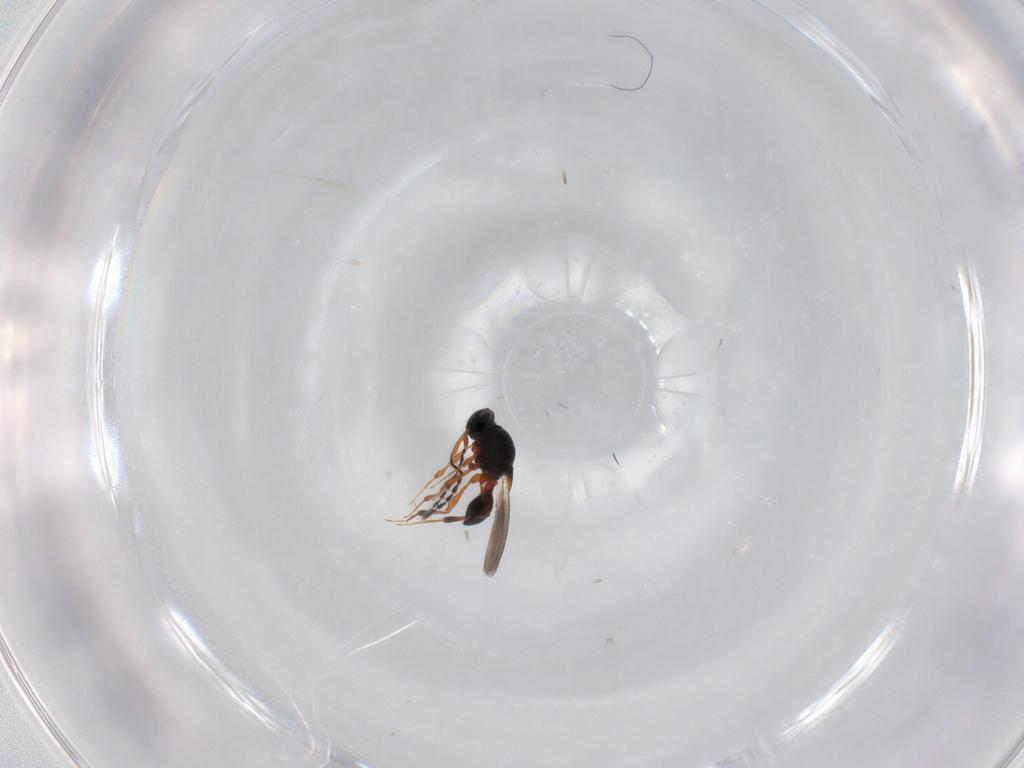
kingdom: Animalia
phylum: Arthropoda
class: Insecta
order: Hymenoptera
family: Platygastridae
